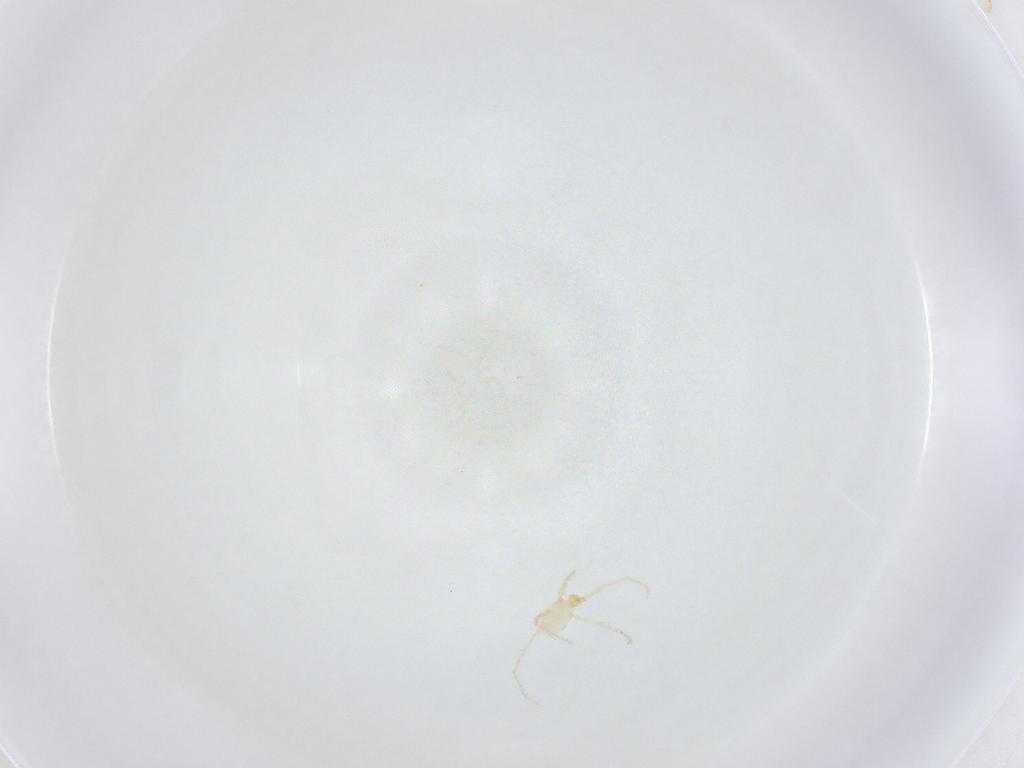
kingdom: Animalia
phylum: Arthropoda
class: Arachnida
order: Trombidiformes
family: Erythraeidae
